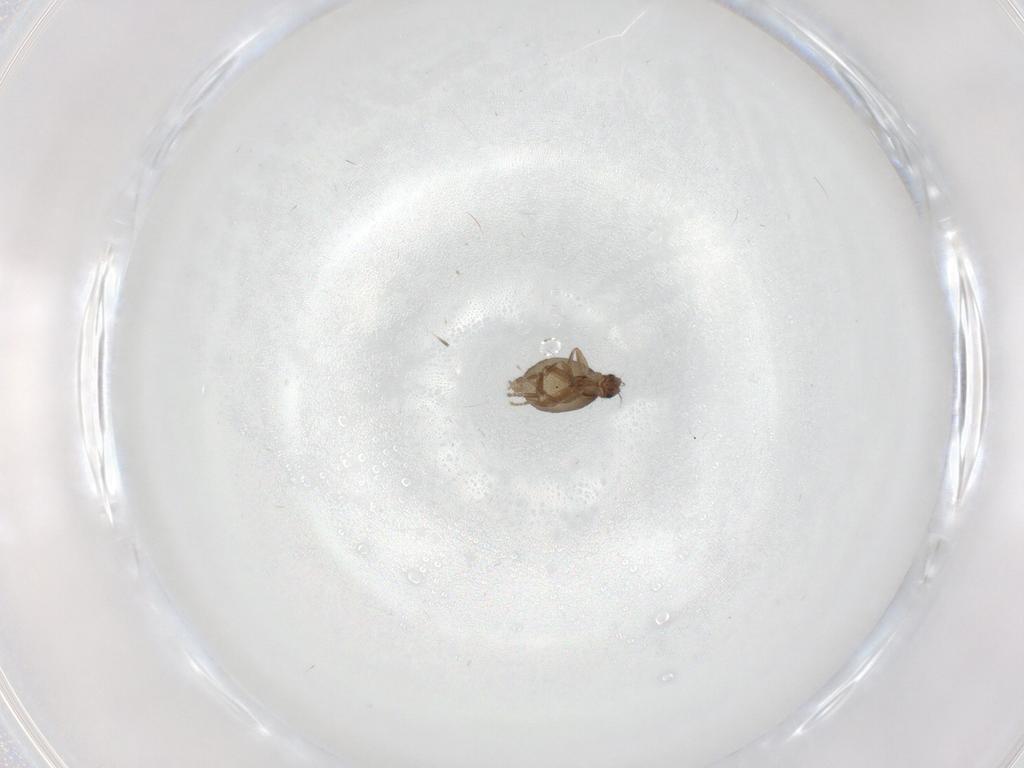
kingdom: Animalia
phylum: Arthropoda
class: Insecta
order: Diptera
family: Phoridae
